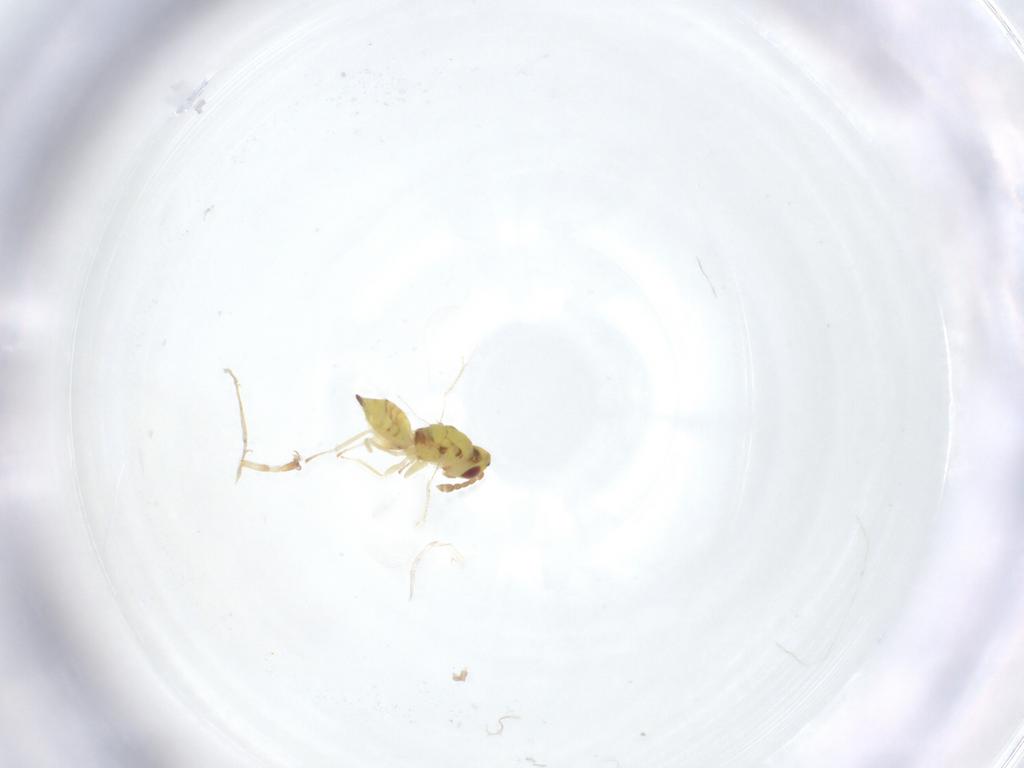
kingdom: Animalia
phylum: Arthropoda
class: Insecta
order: Hymenoptera
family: Eulophidae
